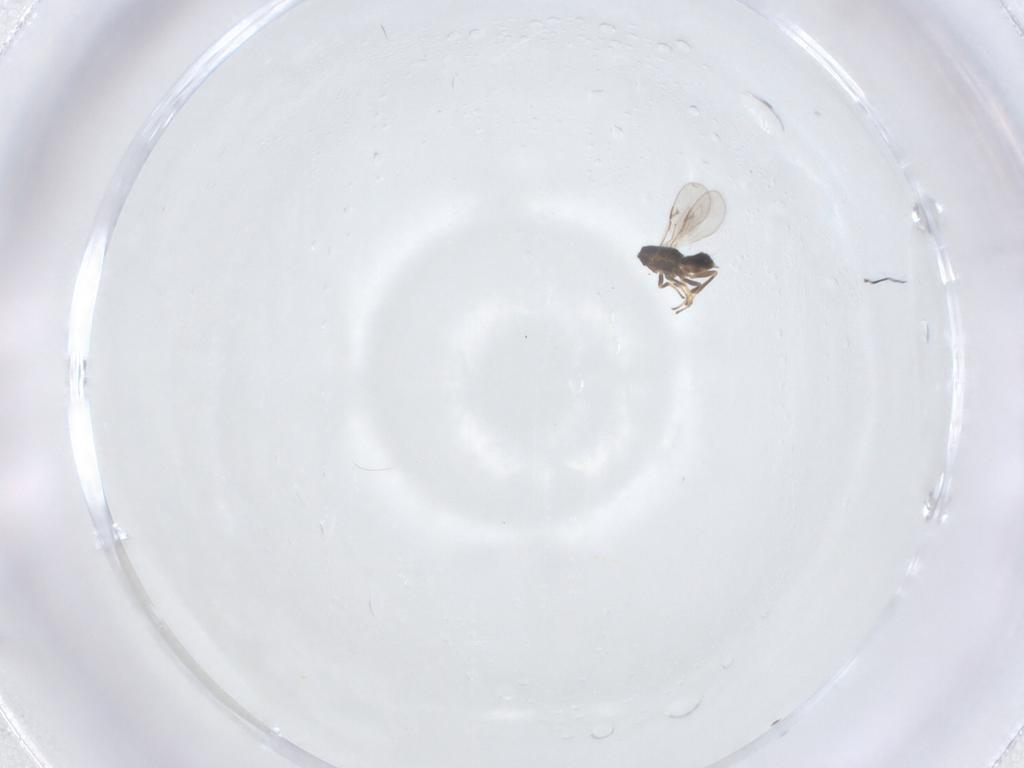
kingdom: Animalia
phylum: Arthropoda
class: Insecta
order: Hymenoptera
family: Encyrtidae
